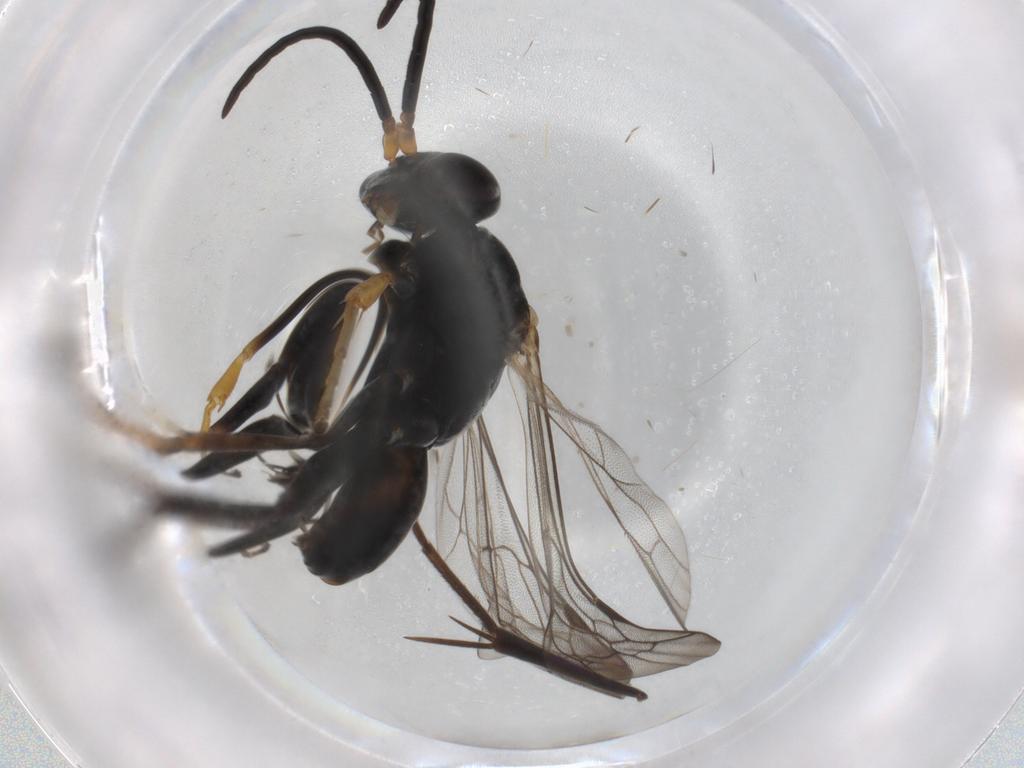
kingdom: Animalia
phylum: Arthropoda
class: Insecta
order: Hymenoptera
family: Pompilidae
